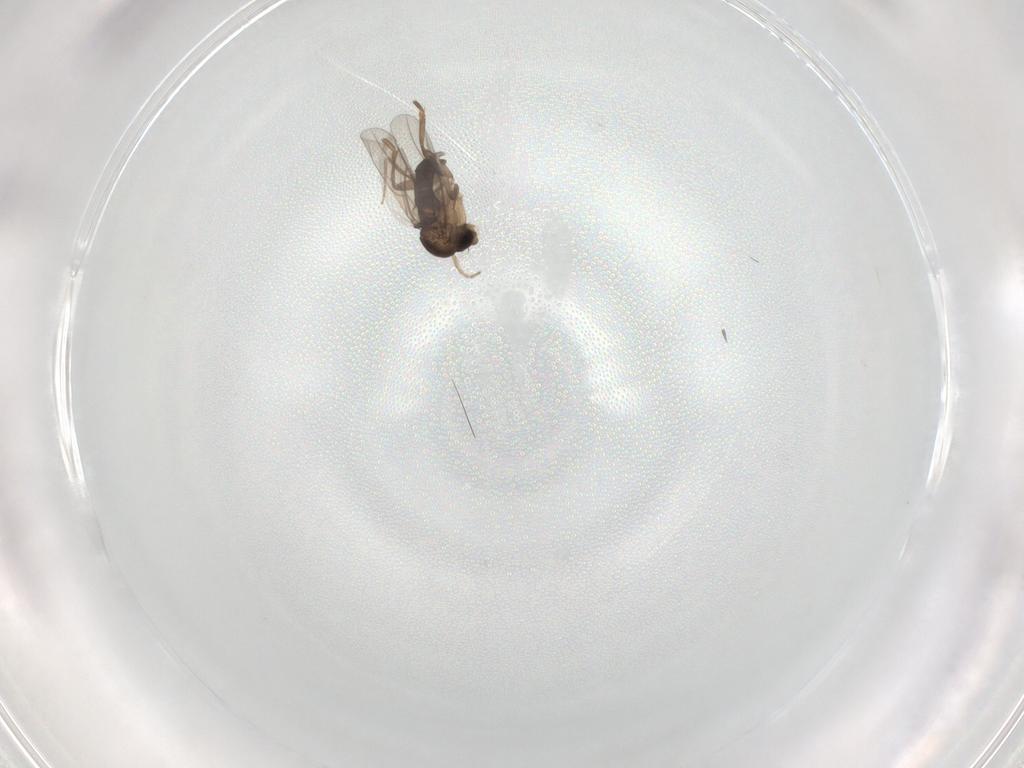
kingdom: Animalia
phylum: Arthropoda
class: Insecta
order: Diptera
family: Phoridae
